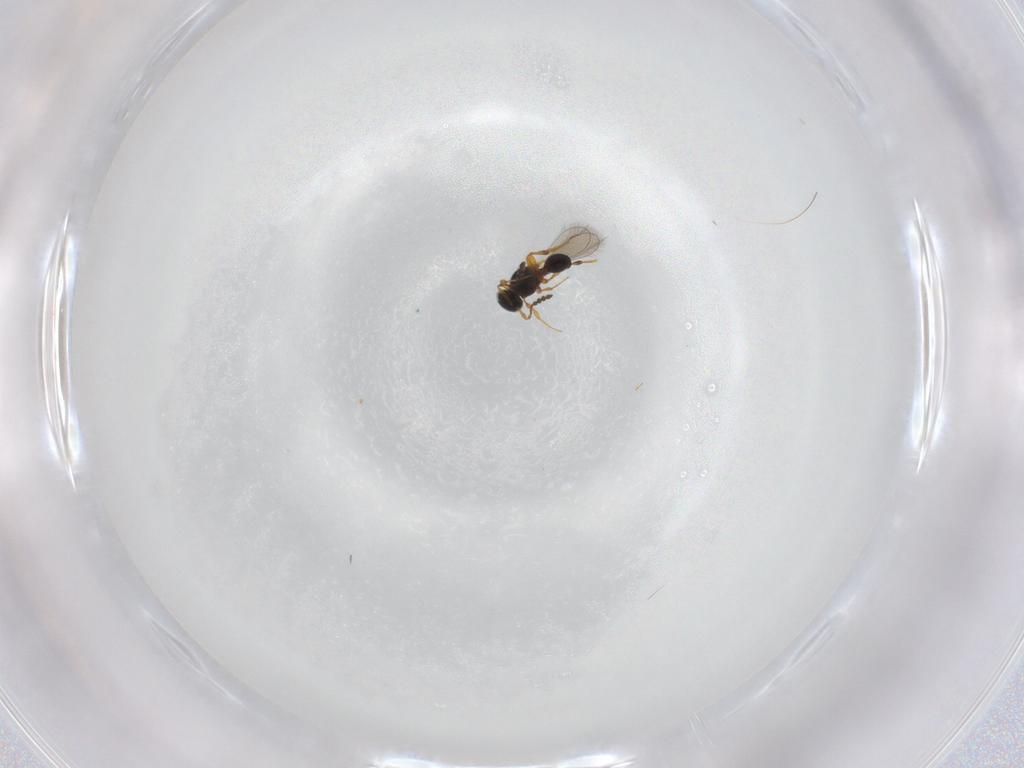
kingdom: Animalia
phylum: Arthropoda
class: Insecta
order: Hymenoptera
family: Platygastridae
